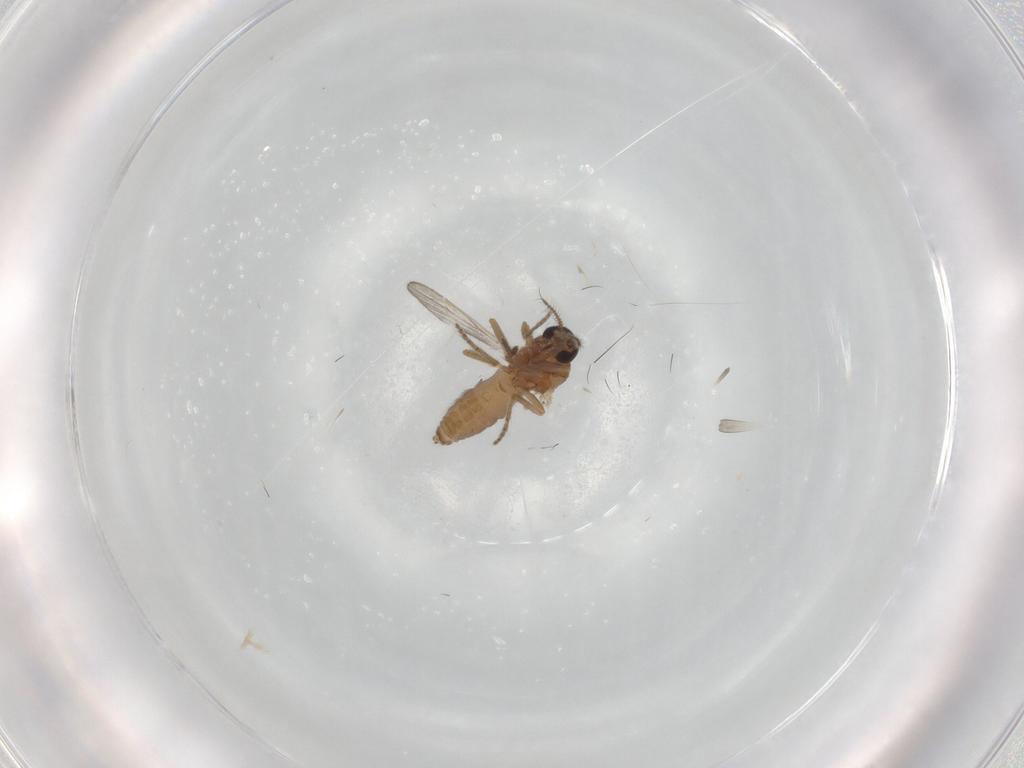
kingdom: Animalia
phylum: Arthropoda
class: Insecta
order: Diptera
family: Ceratopogonidae
